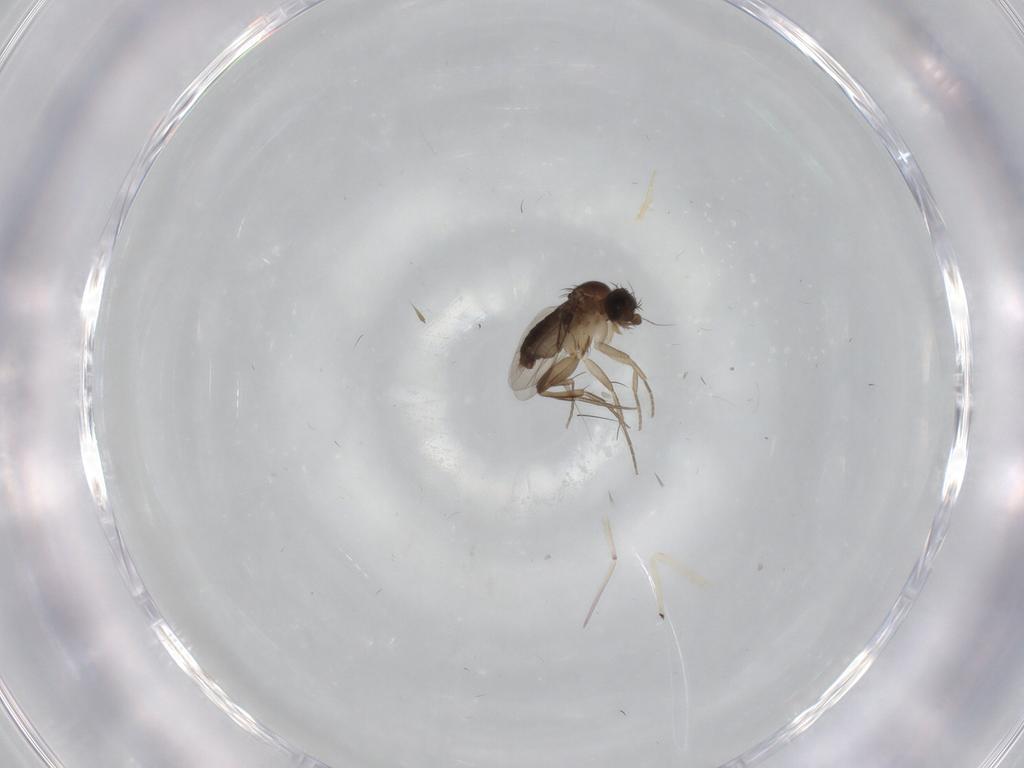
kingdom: Animalia
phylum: Arthropoda
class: Insecta
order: Diptera
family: Phoridae
